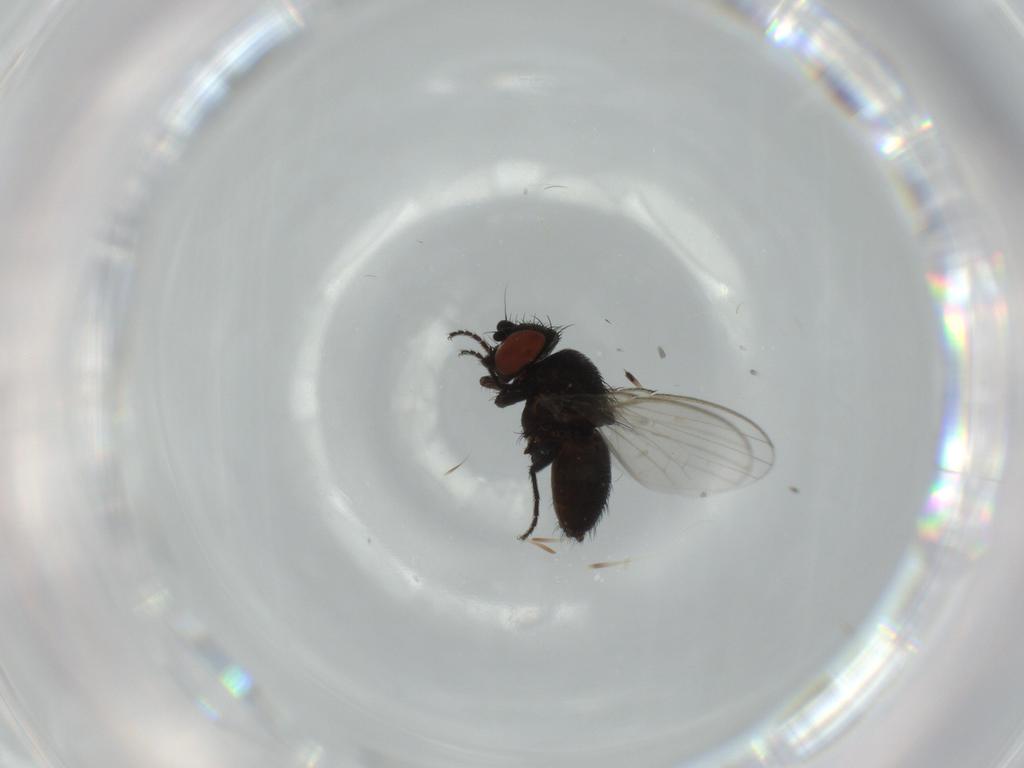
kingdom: Animalia
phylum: Arthropoda
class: Insecta
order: Diptera
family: Milichiidae
